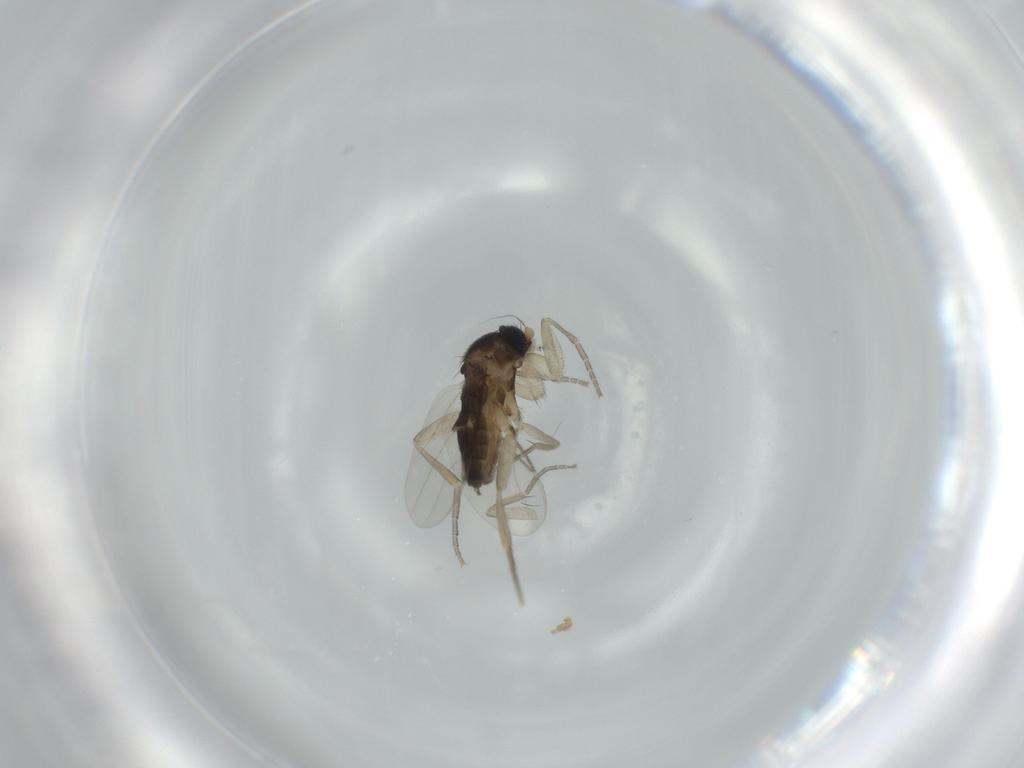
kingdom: Animalia
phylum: Arthropoda
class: Insecta
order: Diptera
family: Phoridae
